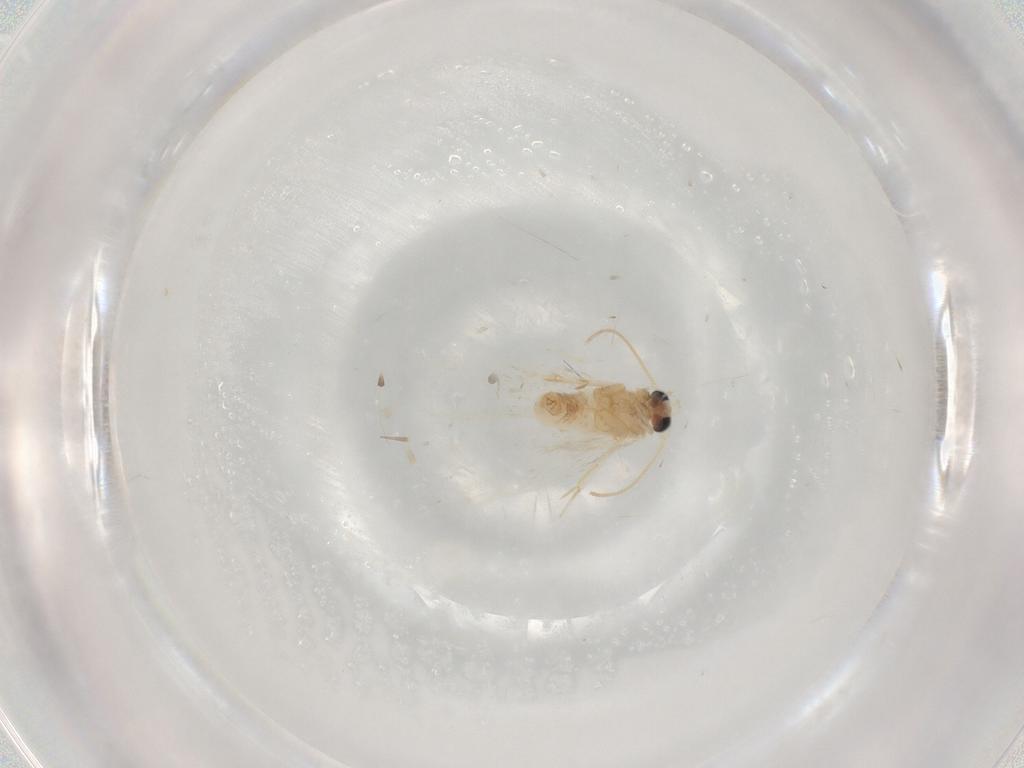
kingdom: Animalia
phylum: Arthropoda
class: Insecta
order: Lepidoptera
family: Nepticulidae
